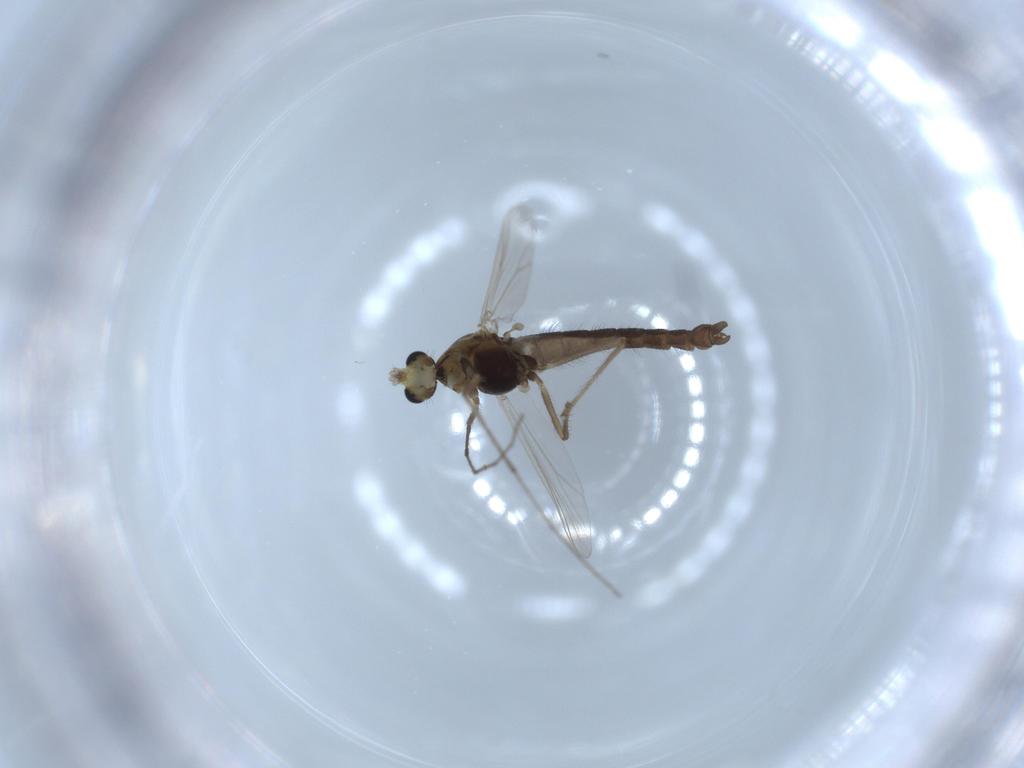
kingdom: Animalia
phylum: Arthropoda
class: Insecta
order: Diptera
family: Chironomidae
